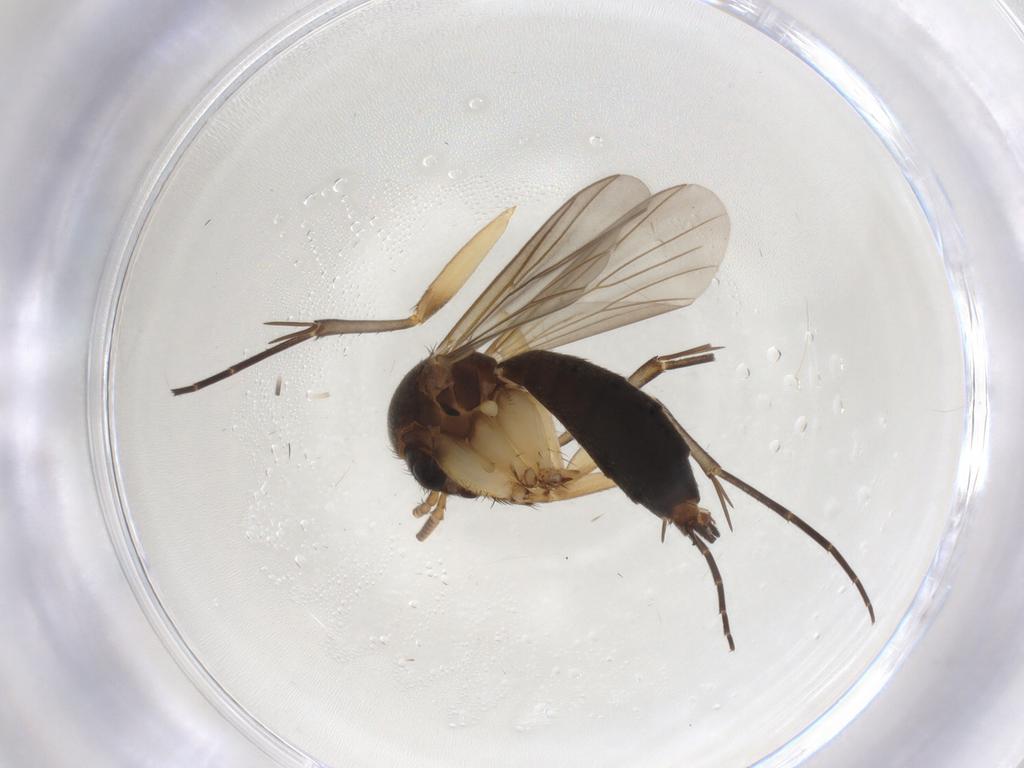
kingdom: Animalia
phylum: Arthropoda
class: Insecta
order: Diptera
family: Mycetophilidae
